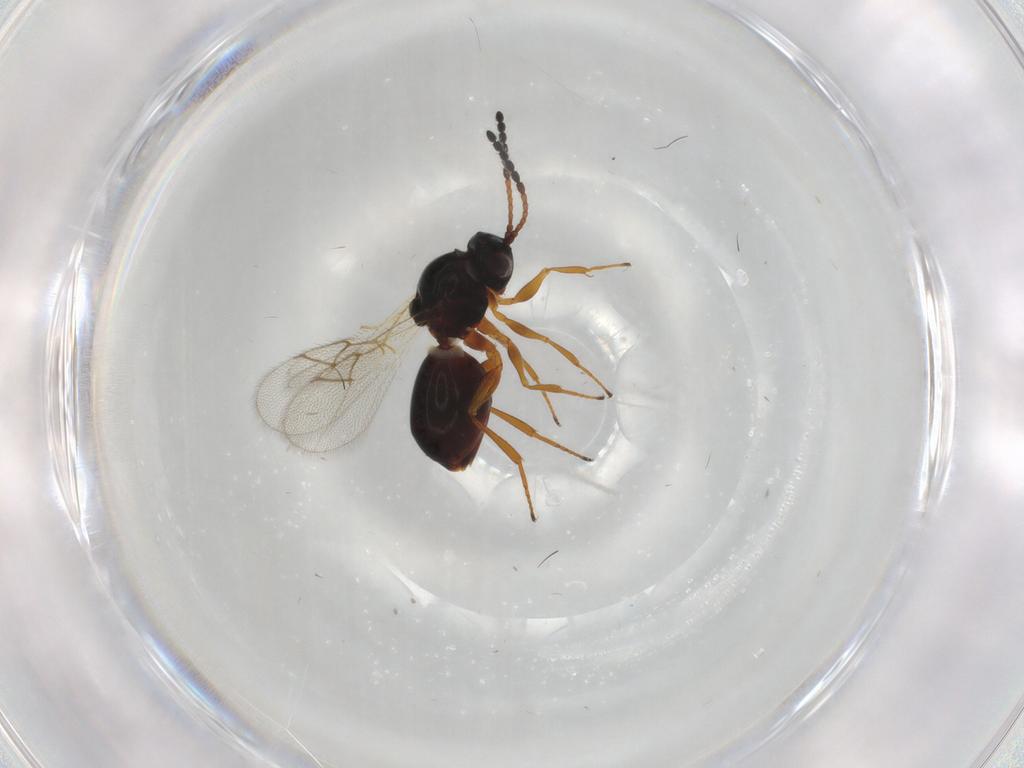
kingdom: Animalia
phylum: Arthropoda
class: Insecta
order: Hymenoptera
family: Figitidae
